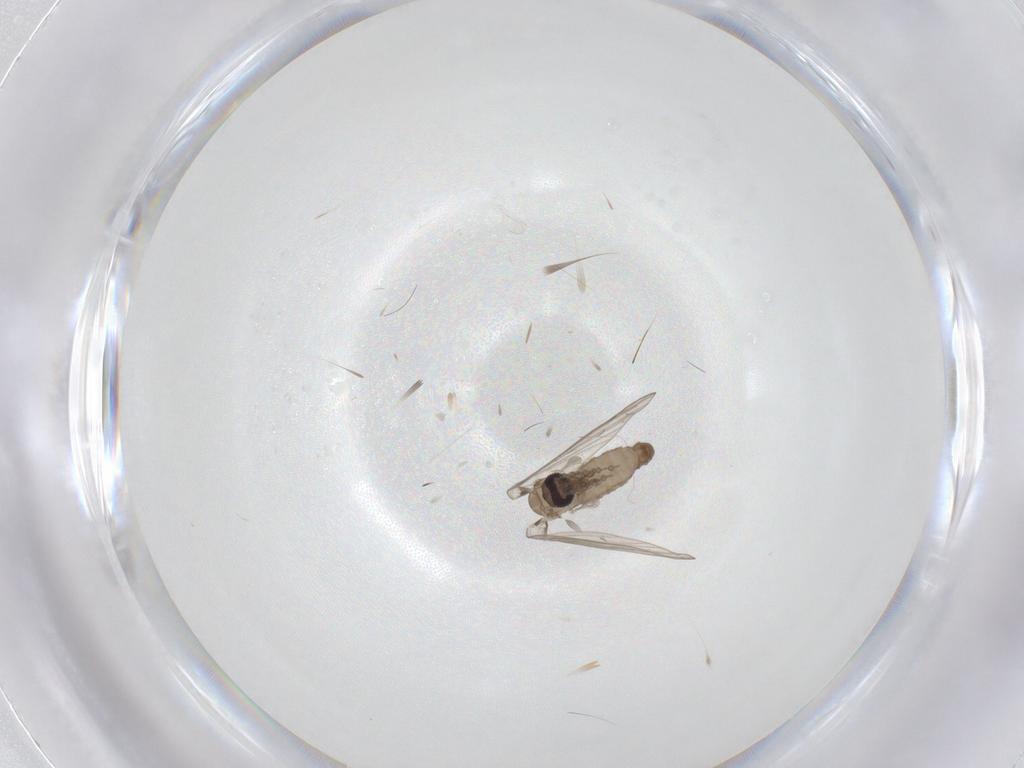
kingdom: Animalia
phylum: Arthropoda
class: Insecta
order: Diptera
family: Chironomidae
